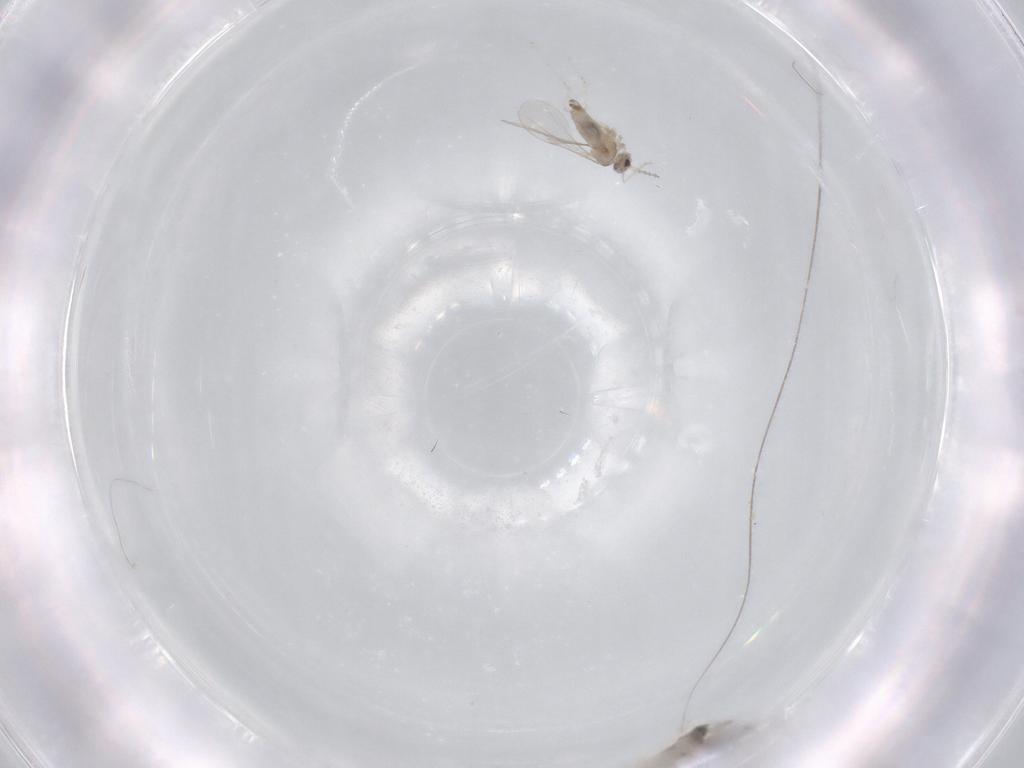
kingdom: Animalia
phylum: Arthropoda
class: Insecta
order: Diptera
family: Cecidomyiidae
